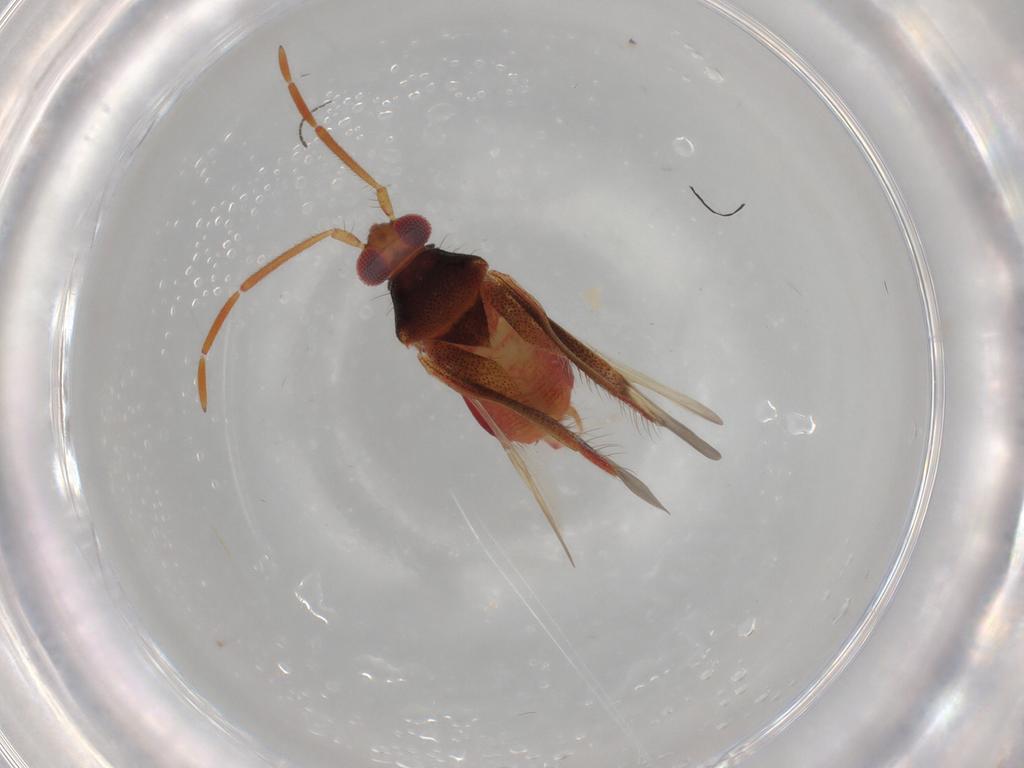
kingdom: Animalia
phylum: Arthropoda
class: Insecta
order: Hemiptera
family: Miridae
